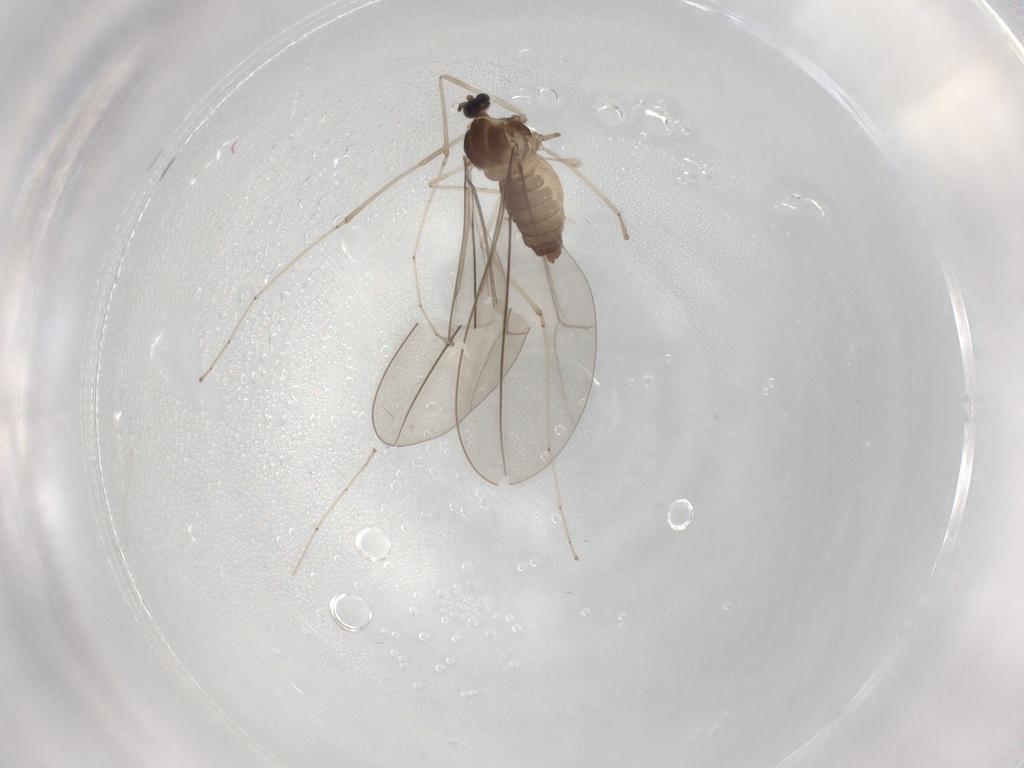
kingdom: Animalia
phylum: Arthropoda
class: Insecta
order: Diptera
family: Cecidomyiidae
